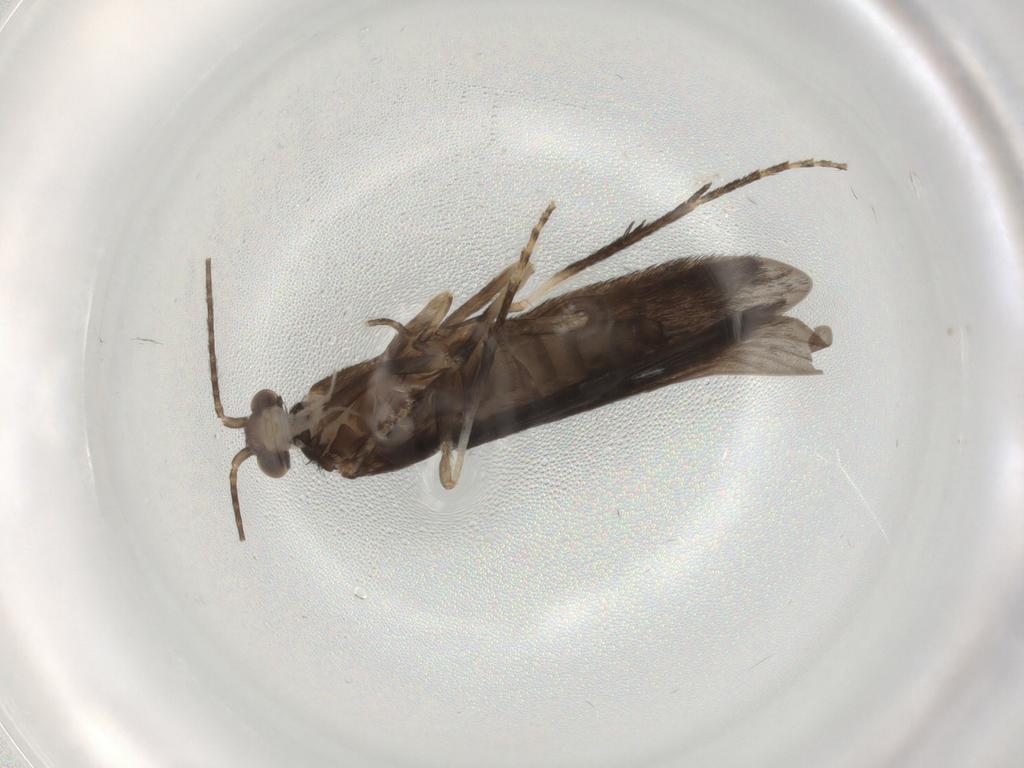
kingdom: Animalia
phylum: Arthropoda
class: Insecta
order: Trichoptera
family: Xiphocentronidae
